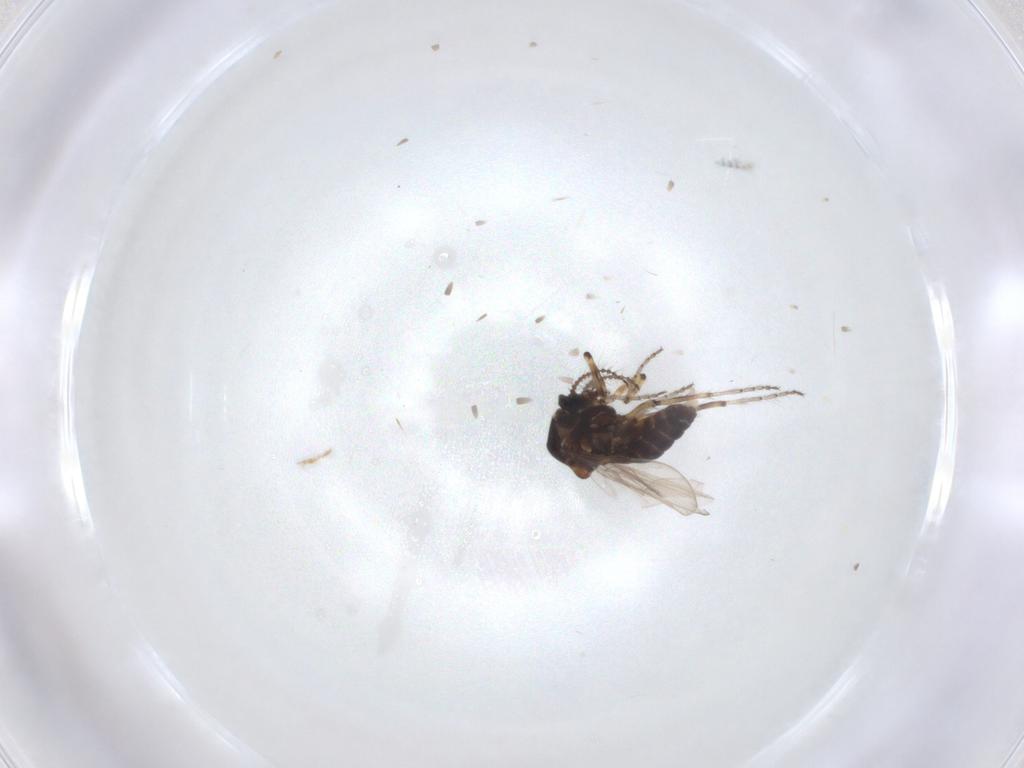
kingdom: Animalia
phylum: Arthropoda
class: Insecta
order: Diptera
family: Ceratopogonidae
